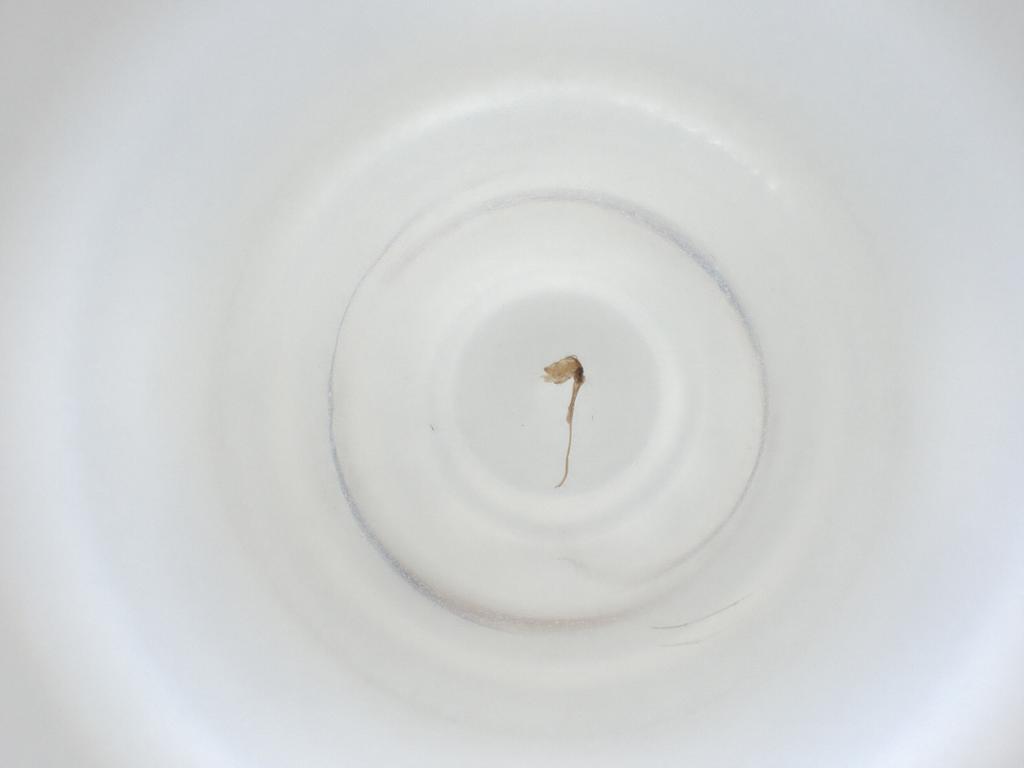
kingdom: Animalia
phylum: Arthropoda
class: Insecta
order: Diptera
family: Cecidomyiidae
